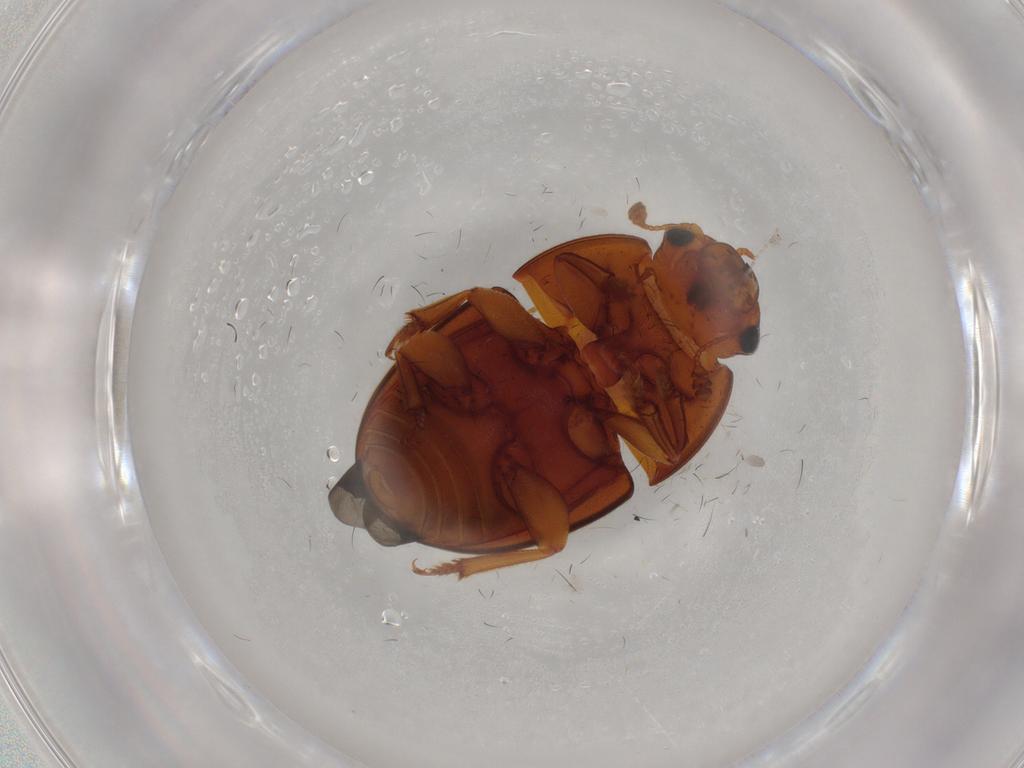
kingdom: Animalia
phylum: Arthropoda
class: Insecta
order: Coleoptera
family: Nitidulidae
